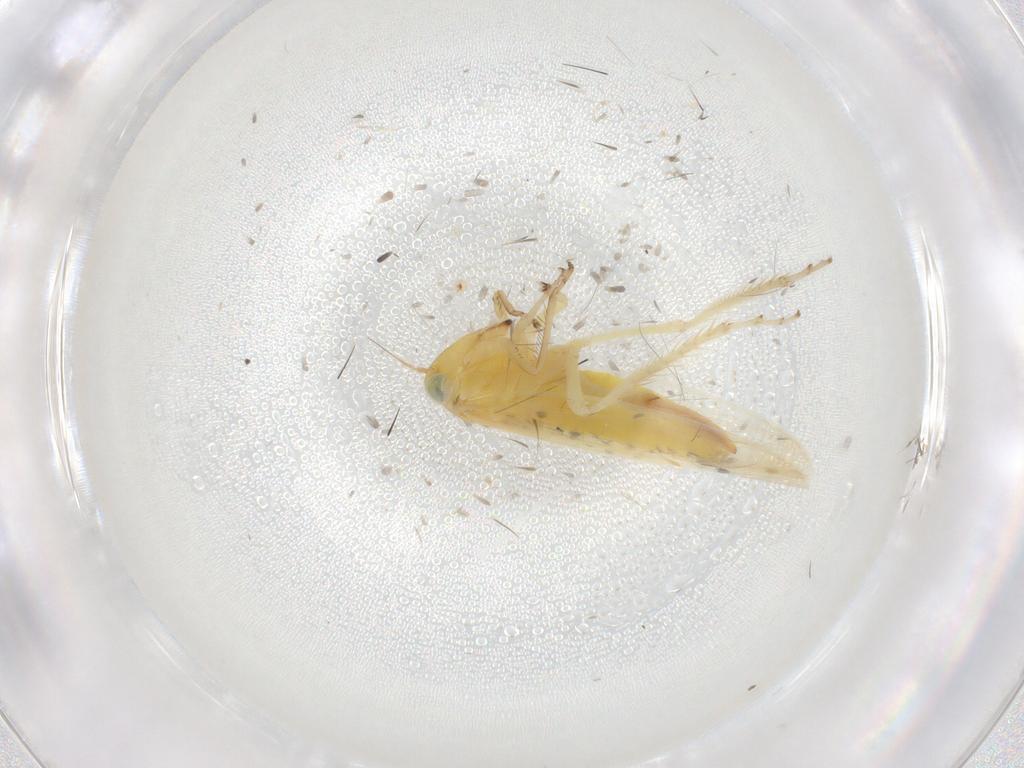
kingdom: Animalia
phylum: Arthropoda
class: Insecta
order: Hemiptera
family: Cicadellidae
